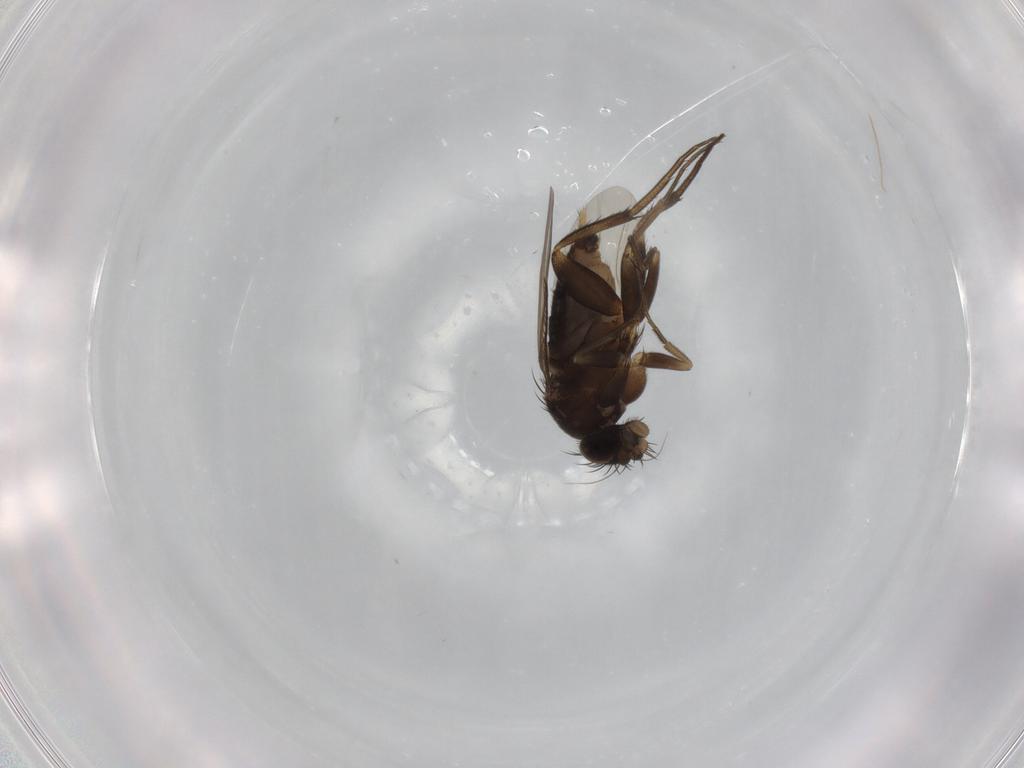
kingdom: Animalia
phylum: Arthropoda
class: Insecta
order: Diptera
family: Phoridae
